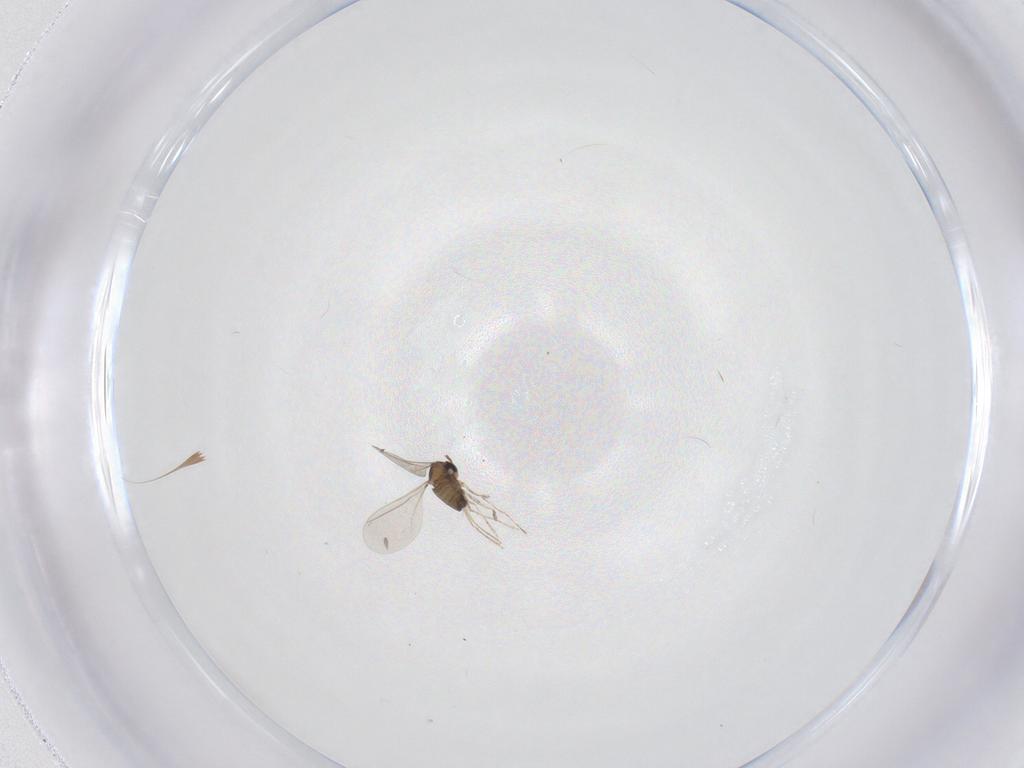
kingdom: Animalia
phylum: Arthropoda
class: Insecta
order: Diptera
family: Cecidomyiidae
